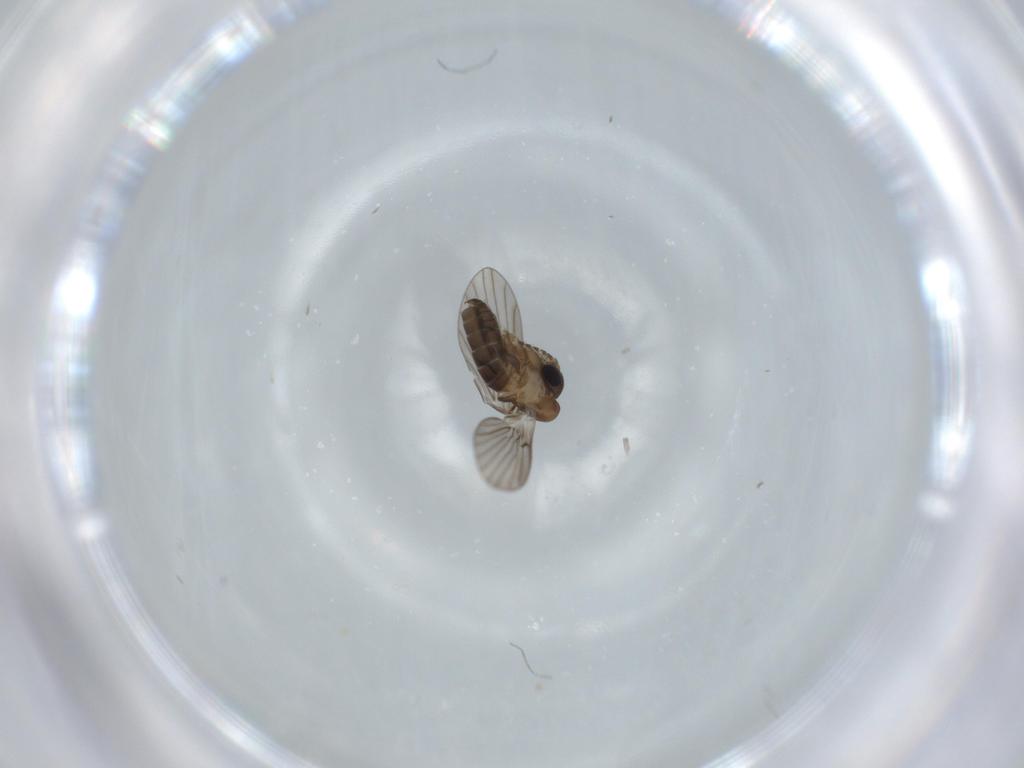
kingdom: Animalia
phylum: Arthropoda
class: Insecta
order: Diptera
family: Psychodidae
